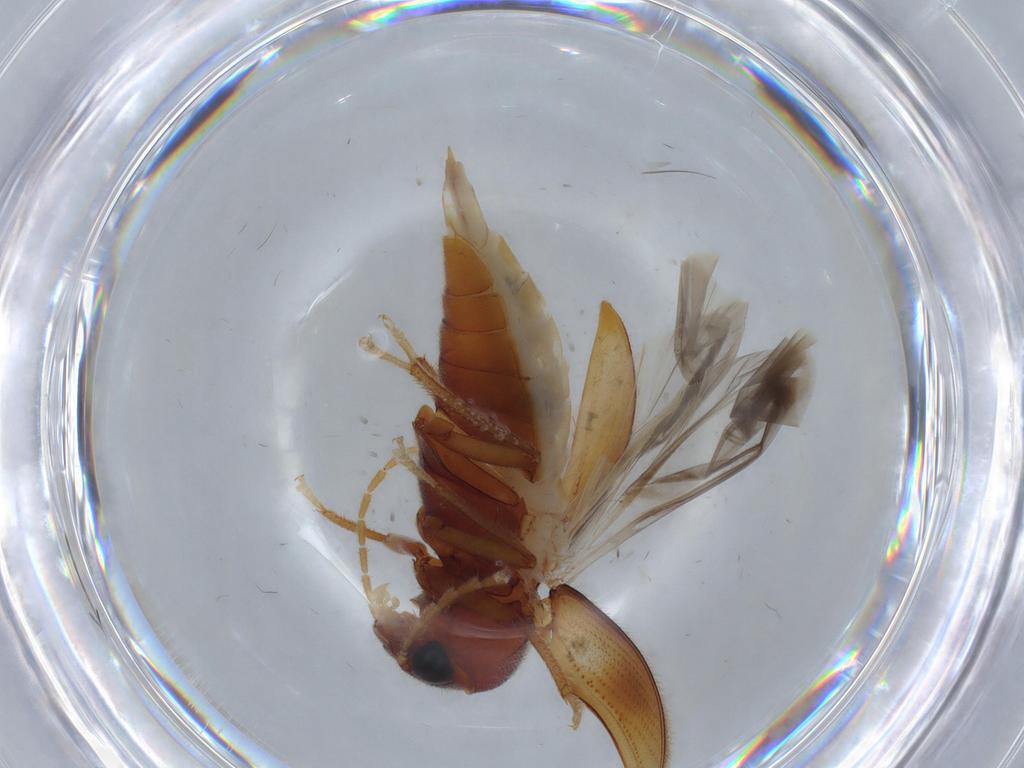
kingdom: Animalia
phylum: Arthropoda
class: Insecta
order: Coleoptera
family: Ptilodactylidae
